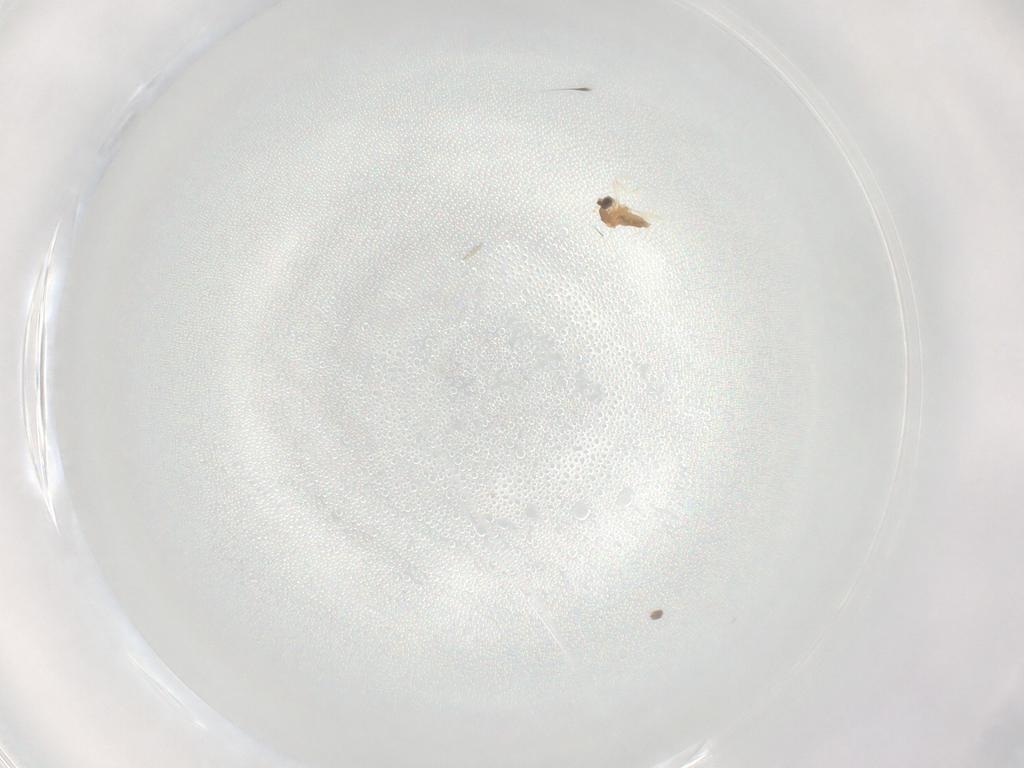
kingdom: Animalia
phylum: Arthropoda
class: Insecta
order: Diptera
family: Cecidomyiidae
